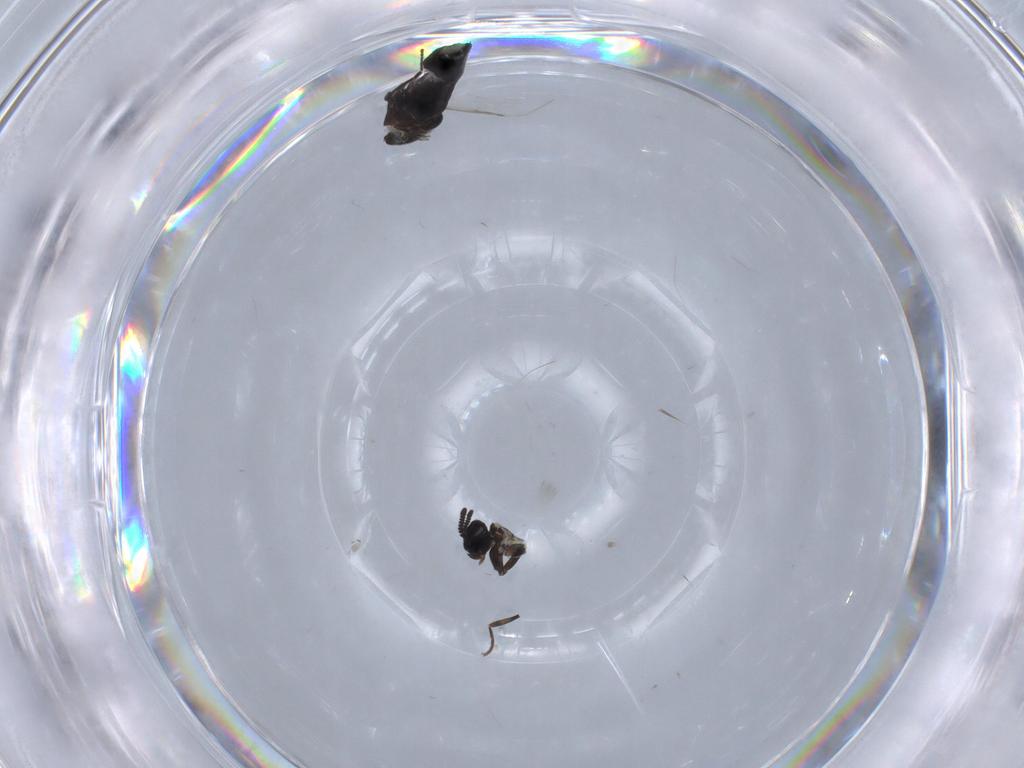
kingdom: Animalia
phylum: Arthropoda
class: Insecta
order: Diptera
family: Scatopsidae
